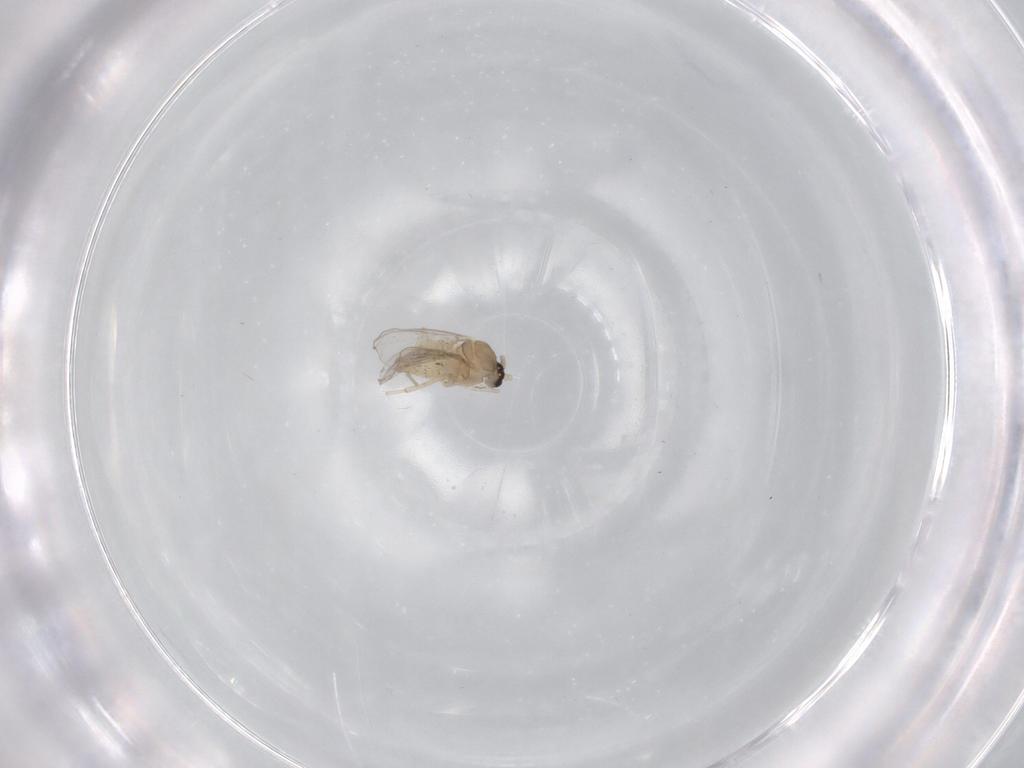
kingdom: Animalia
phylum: Arthropoda
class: Insecta
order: Diptera
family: Cecidomyiidae
